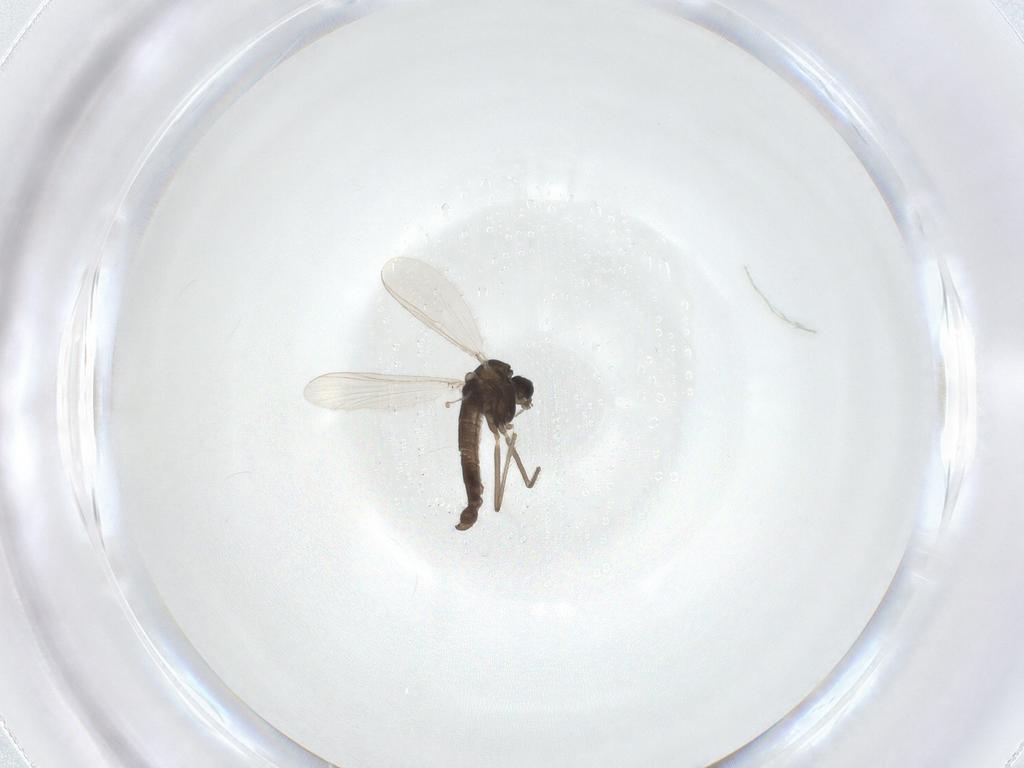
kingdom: Animalia
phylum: Arthropoda
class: Insecta
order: Diptera
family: Chironomidae
